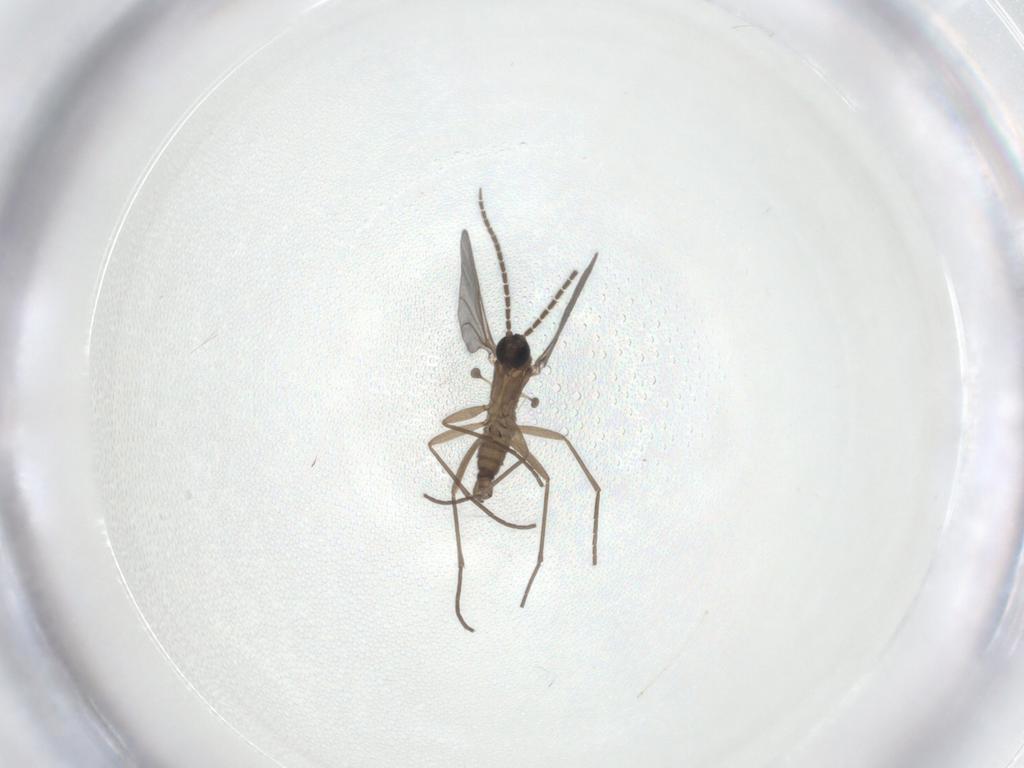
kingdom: Animalia
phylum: Arthropoda
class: Insecta
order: Diptera
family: Sciaridae
